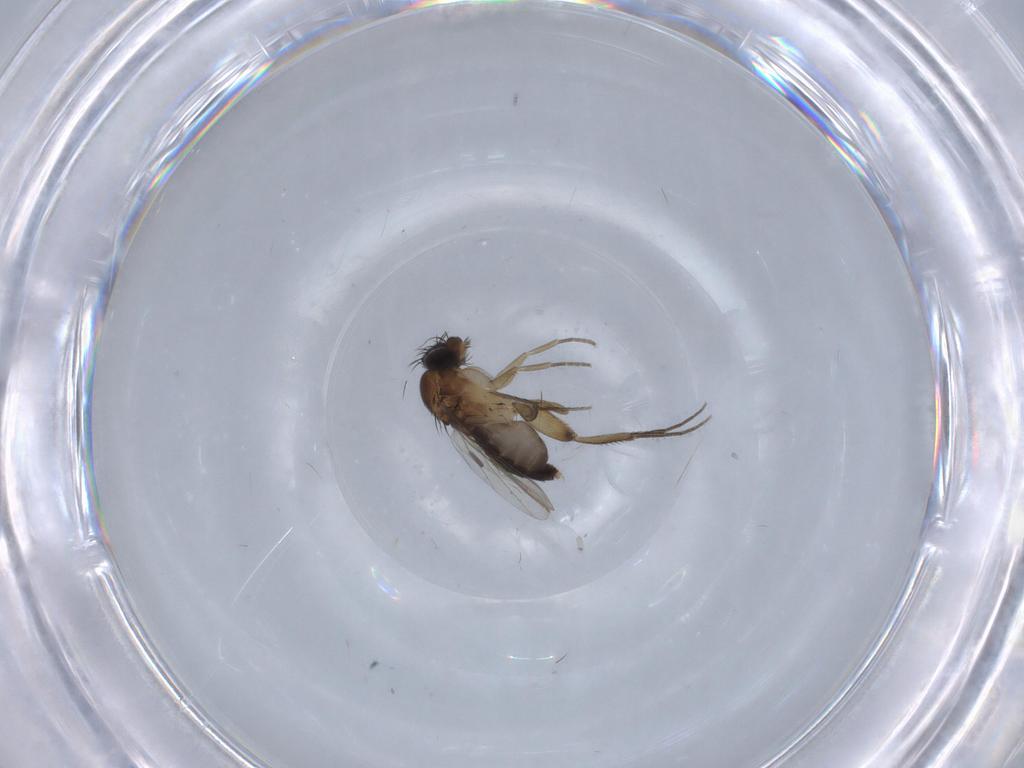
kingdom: Animalia
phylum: Arthropoda
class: Insecta
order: Diptera
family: Phoridae
